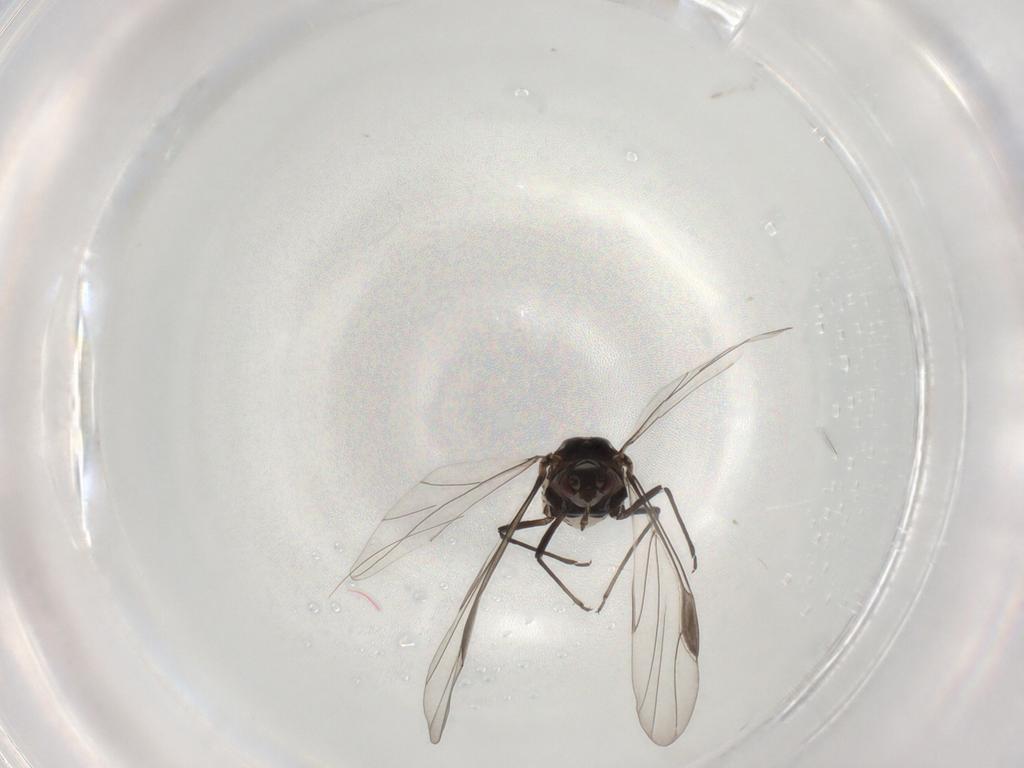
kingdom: Animalia
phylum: Arthropoda
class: Insecta
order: Hemiptera
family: Aphididae
